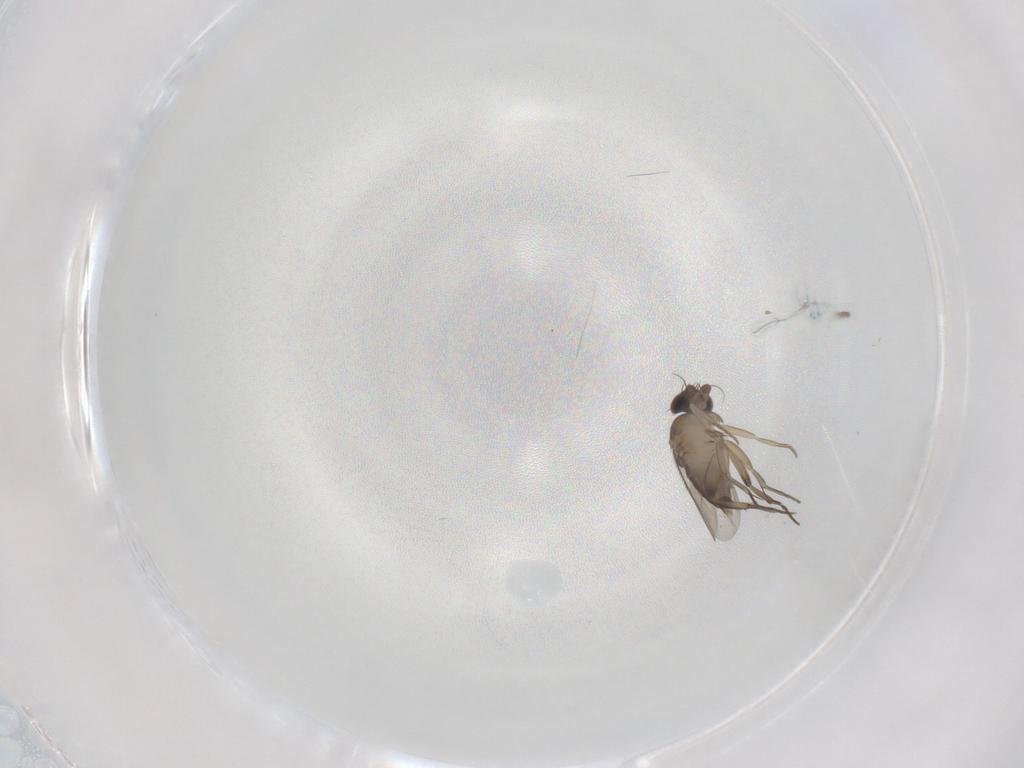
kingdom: Animalia
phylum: Arthropoda
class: Insecta
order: Diptera
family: Phoridae
